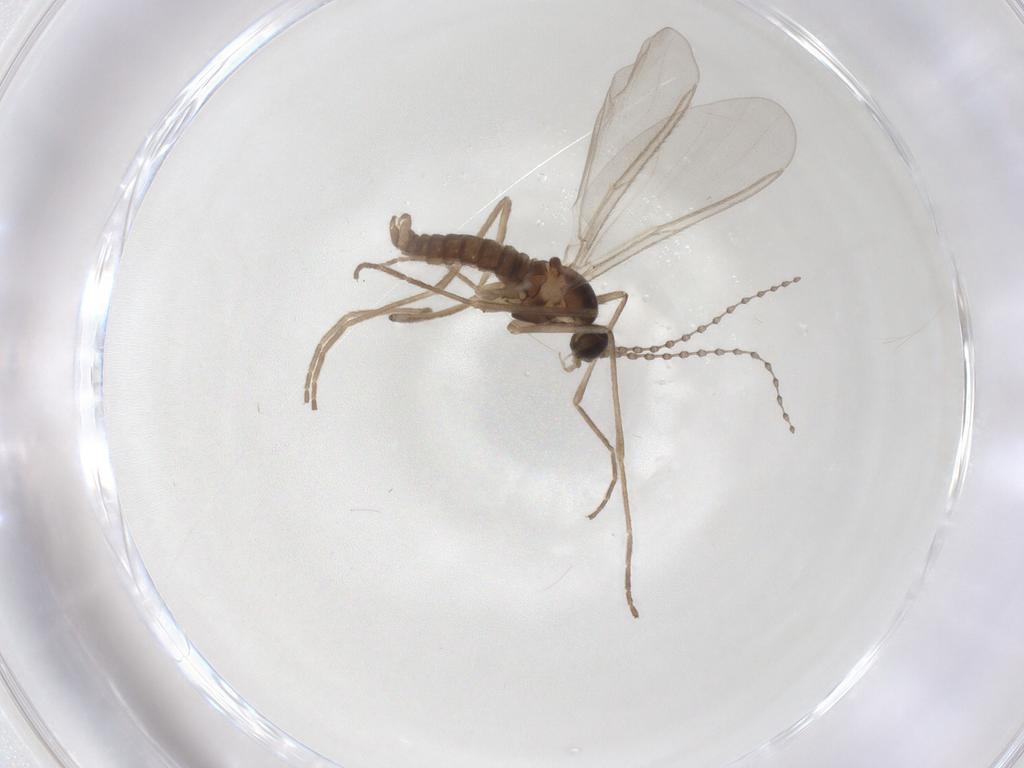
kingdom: Animalia
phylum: Arthropoda
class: Insecta
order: Diptera
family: Cecidomyiidae
